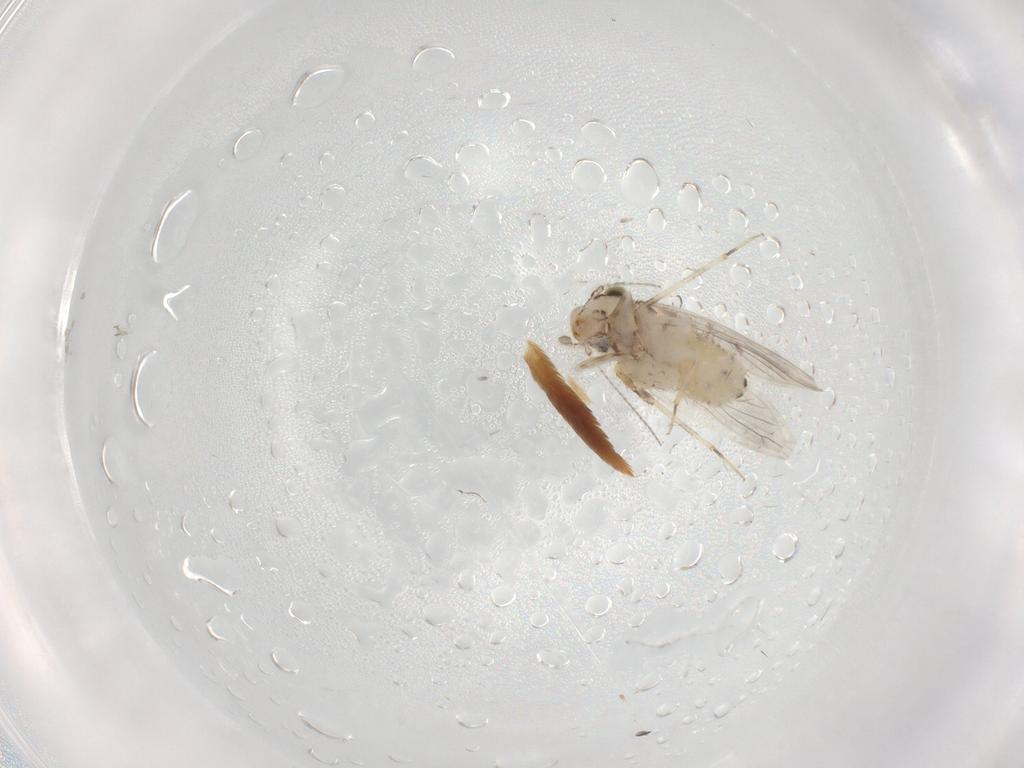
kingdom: Animalia
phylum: Arthropoda
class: Insecta
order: Psocodea
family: Lepidopsocidae
